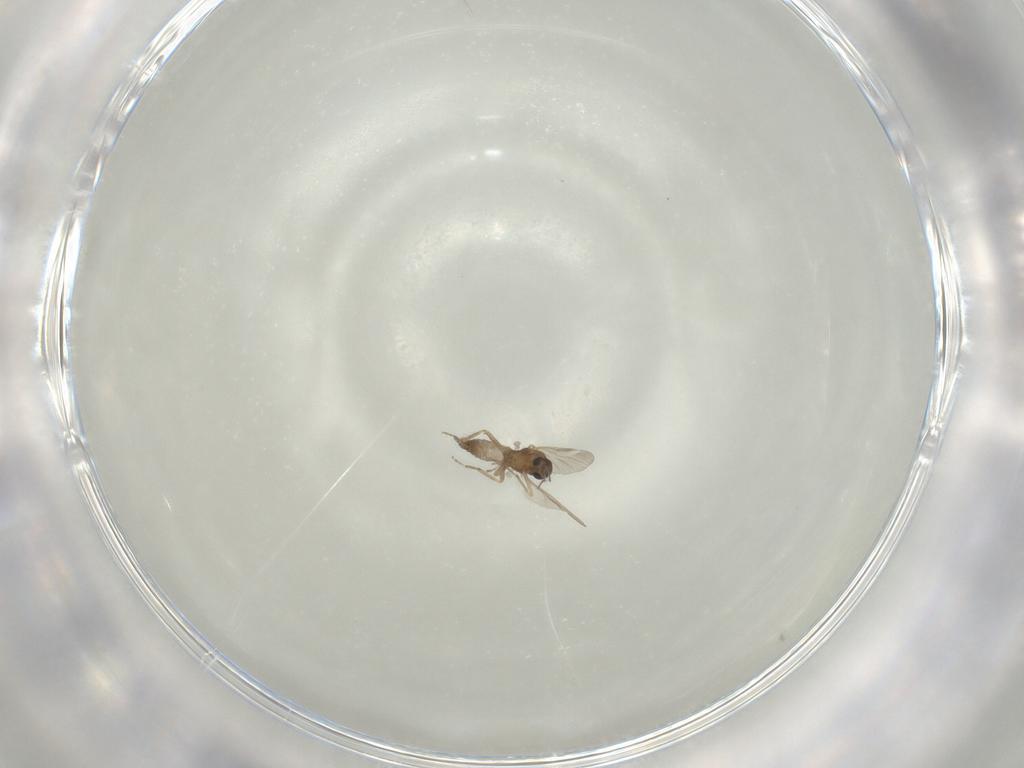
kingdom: Animalia
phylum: Arthropoda
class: Insecta
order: Diptera
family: Ceratopogonidae
